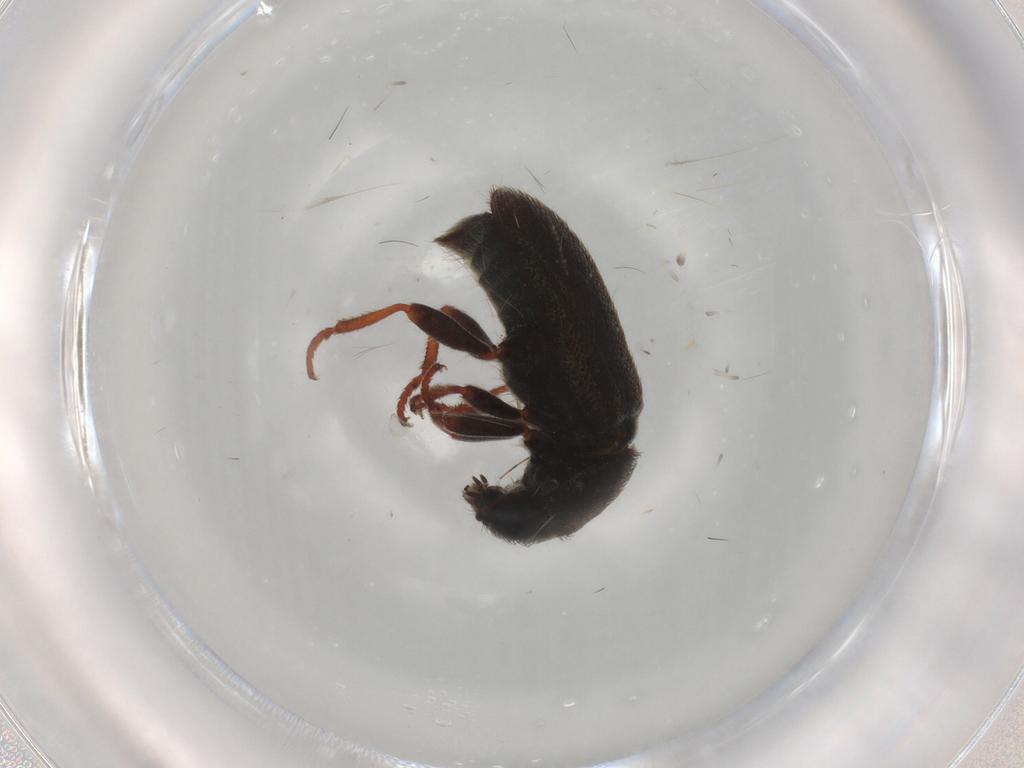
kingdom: Animalia
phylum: Arthropoda
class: Insecta
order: Coleoptera
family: Melyridae
